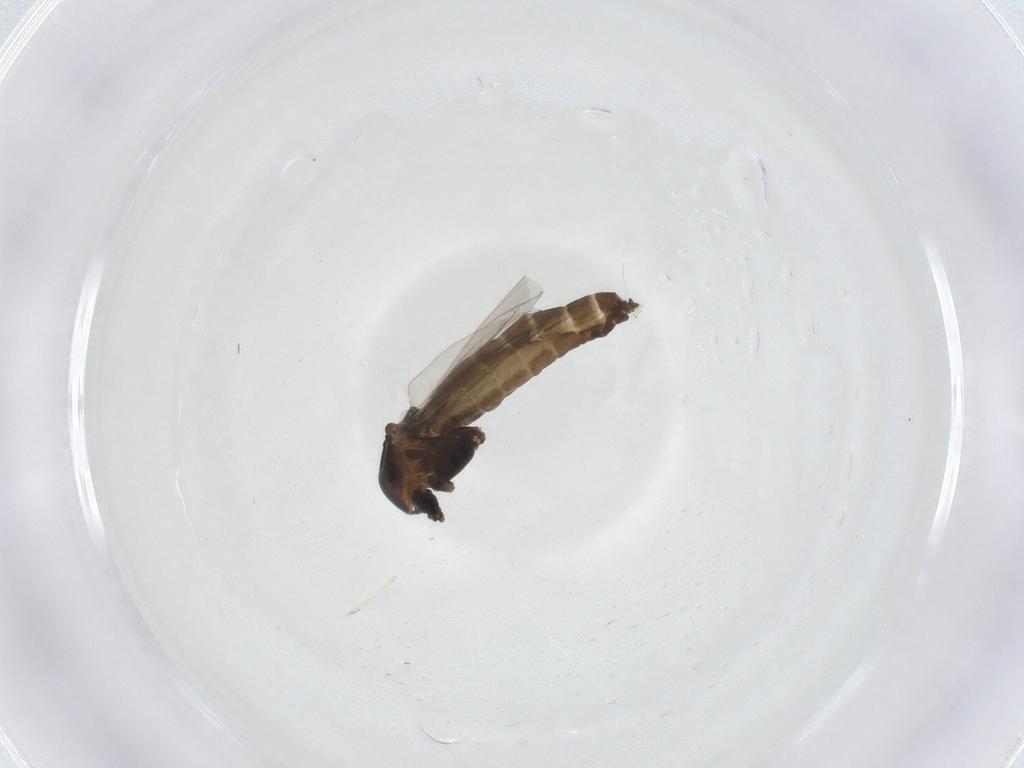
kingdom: Animalia
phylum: Arthropoda
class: Insecta
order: Diptera
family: Chironomidae
